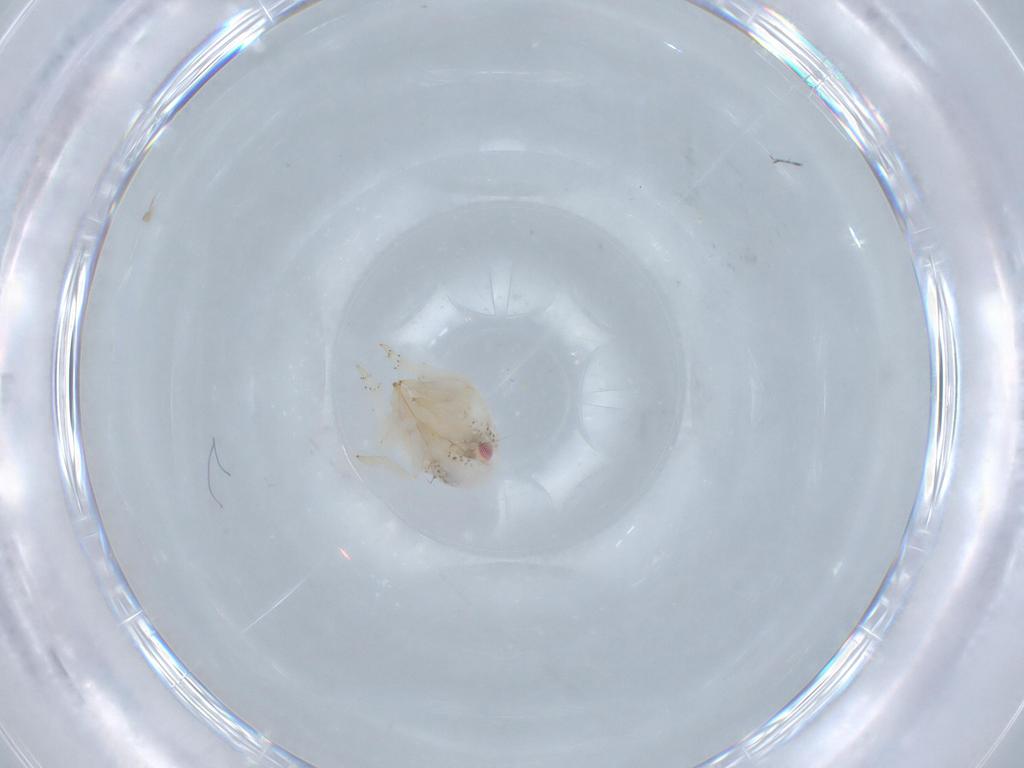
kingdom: Animalia
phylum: Arthropoda
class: Insecta
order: Hemiptera
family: Acanaloniidae
